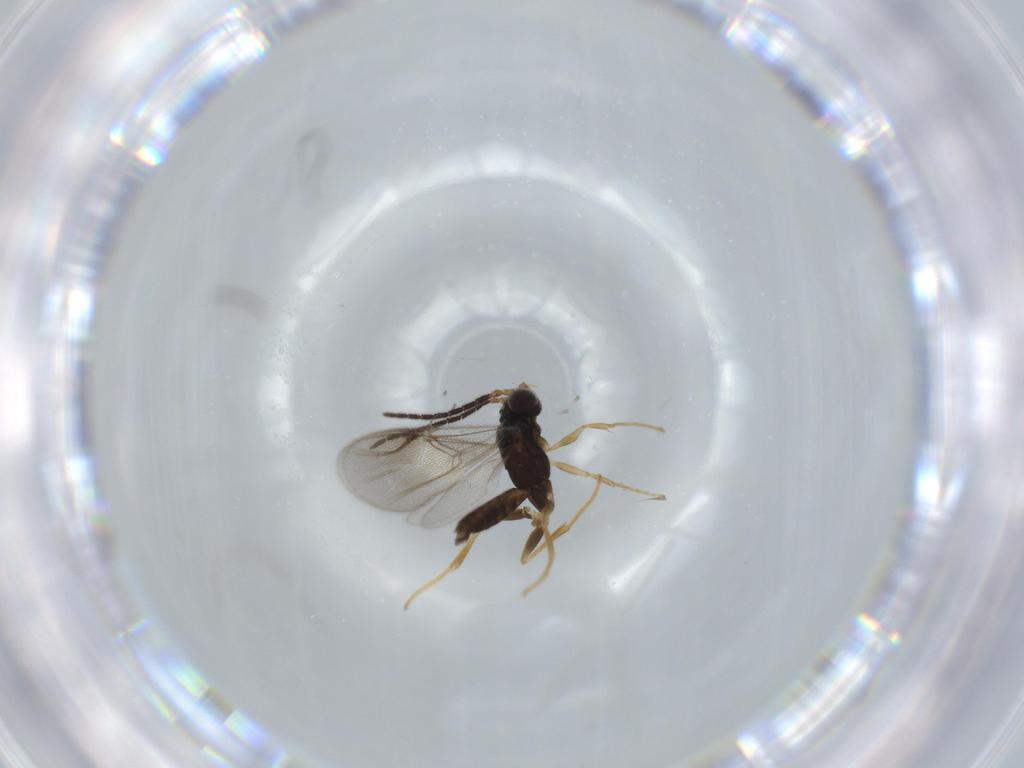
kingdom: Animalia
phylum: Arthropoda
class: Insecta
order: Hymenoptera
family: Dryinidae
